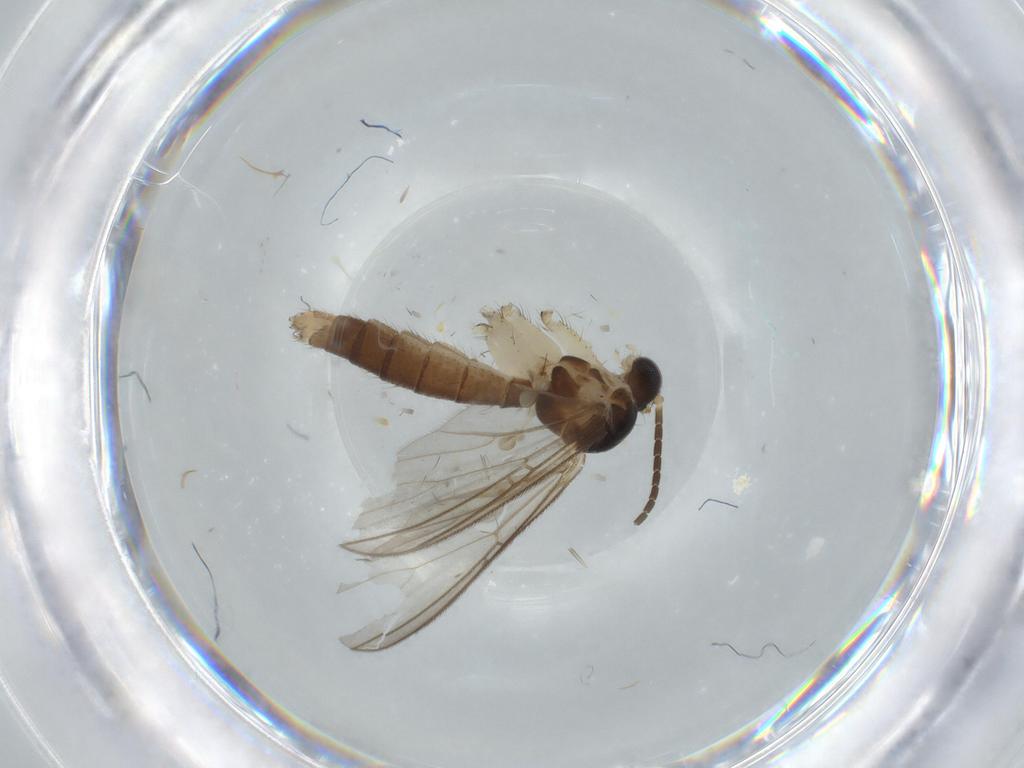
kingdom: Animalia
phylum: Arthropoda
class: Insecta
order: Diptera
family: Mycetophilidae
